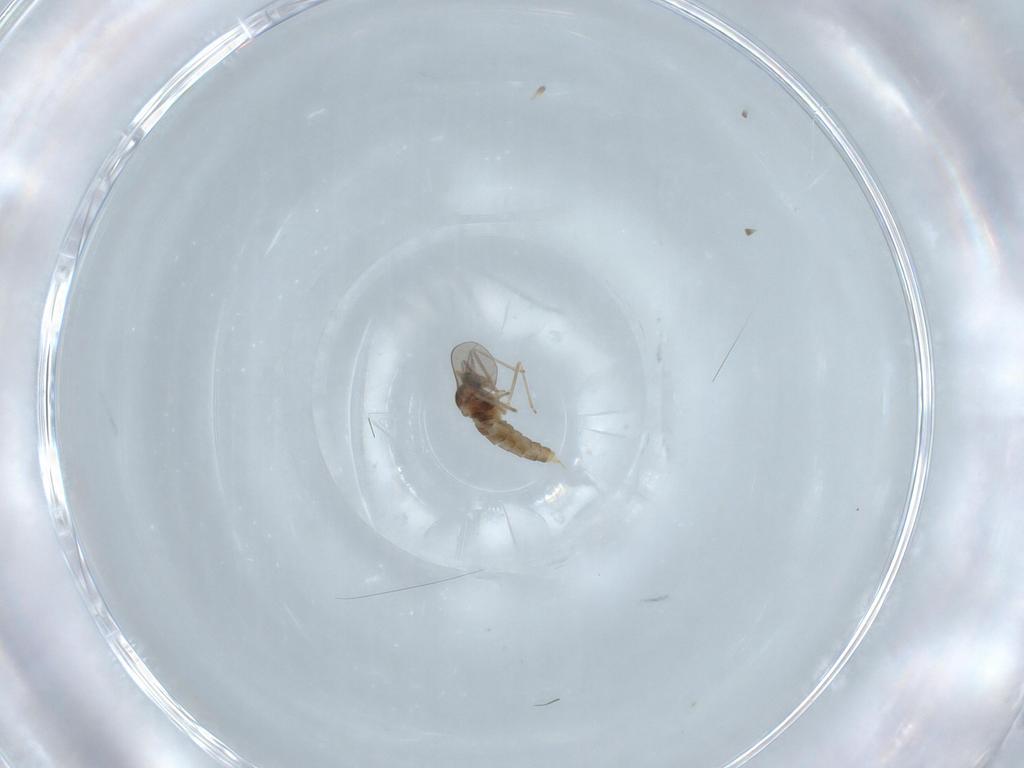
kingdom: Animalia
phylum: Arthropoda
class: Insecta
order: Diptera
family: Cecidomyiidae
